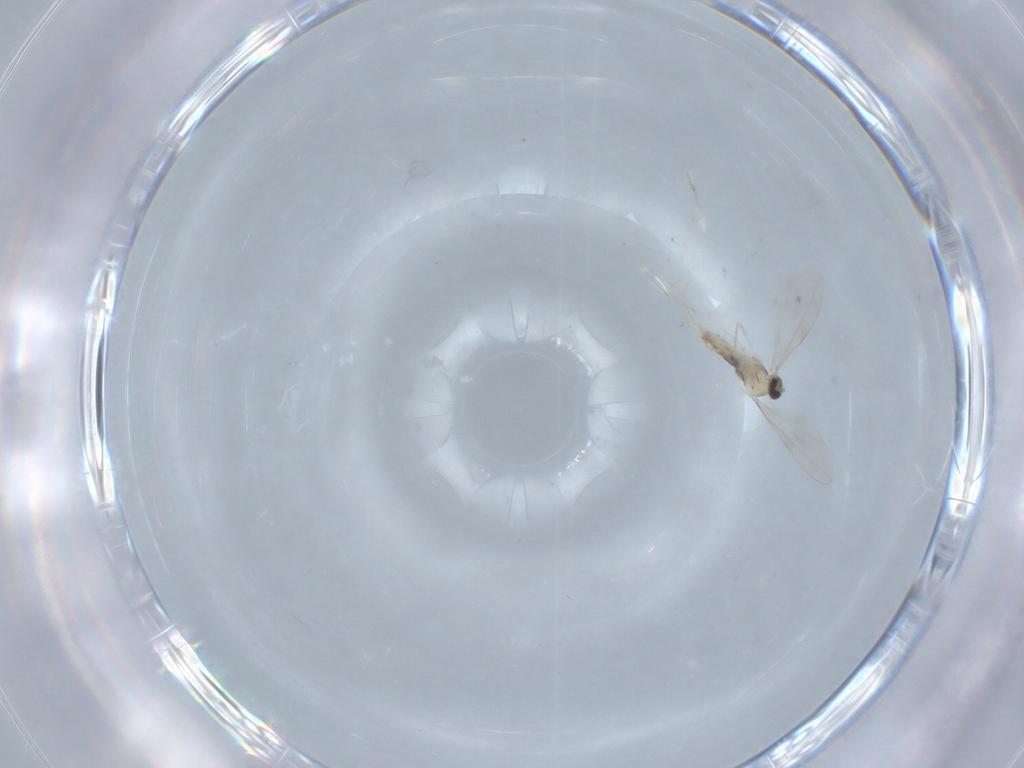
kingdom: Animalia
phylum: Arthropoda
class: Insecta
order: Diptera
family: Cecidomyiidae
